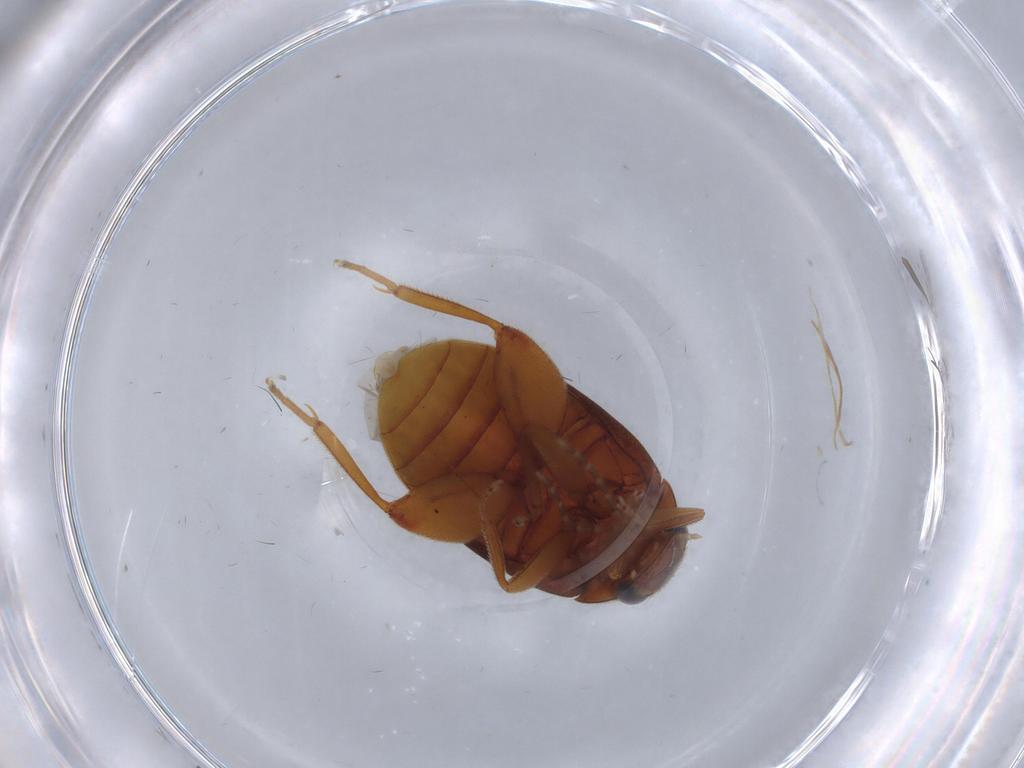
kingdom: Animalia
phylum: Arthropoda
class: Insecta
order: Coleoptera
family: Scirtidae
